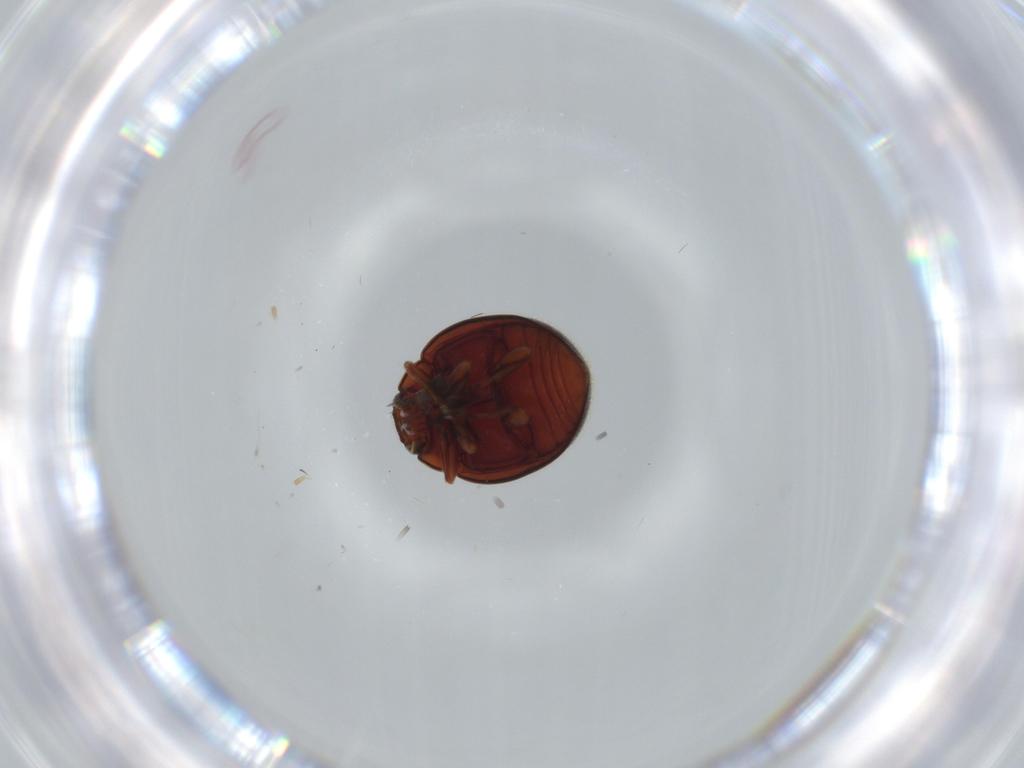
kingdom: Animalia
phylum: Arthropoda
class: Insecta
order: Coleoptera
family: Coccinellidae
